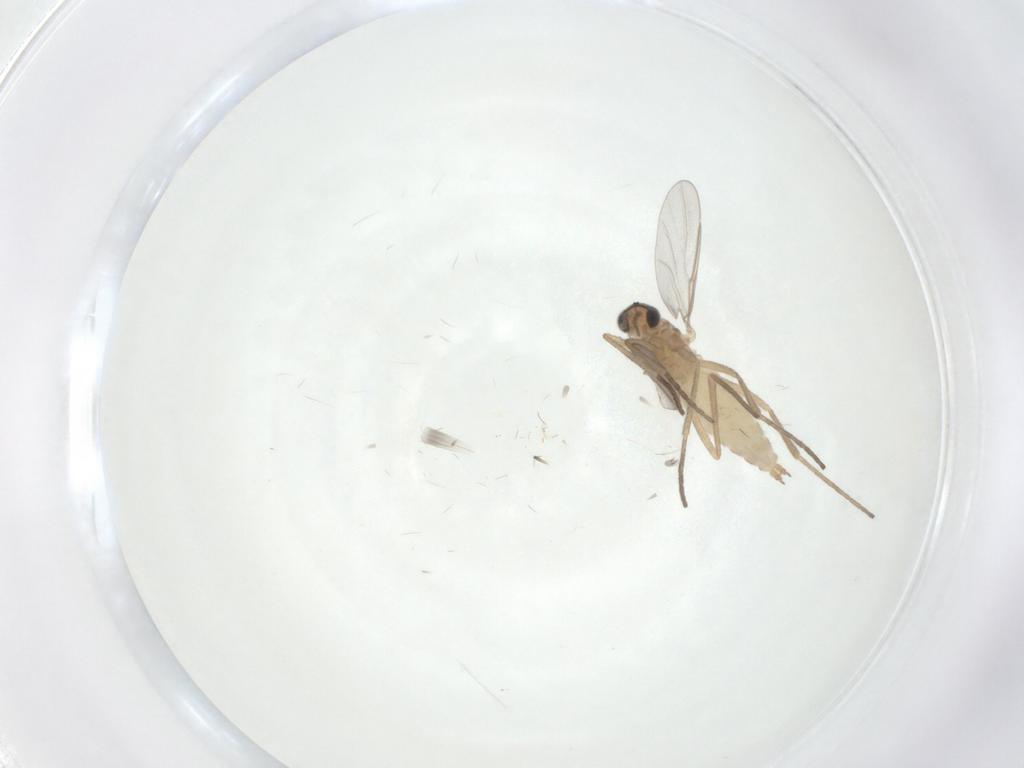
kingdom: Animalia
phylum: Arthropoda
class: Insecta
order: Diptera
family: Cecidomyiidae
